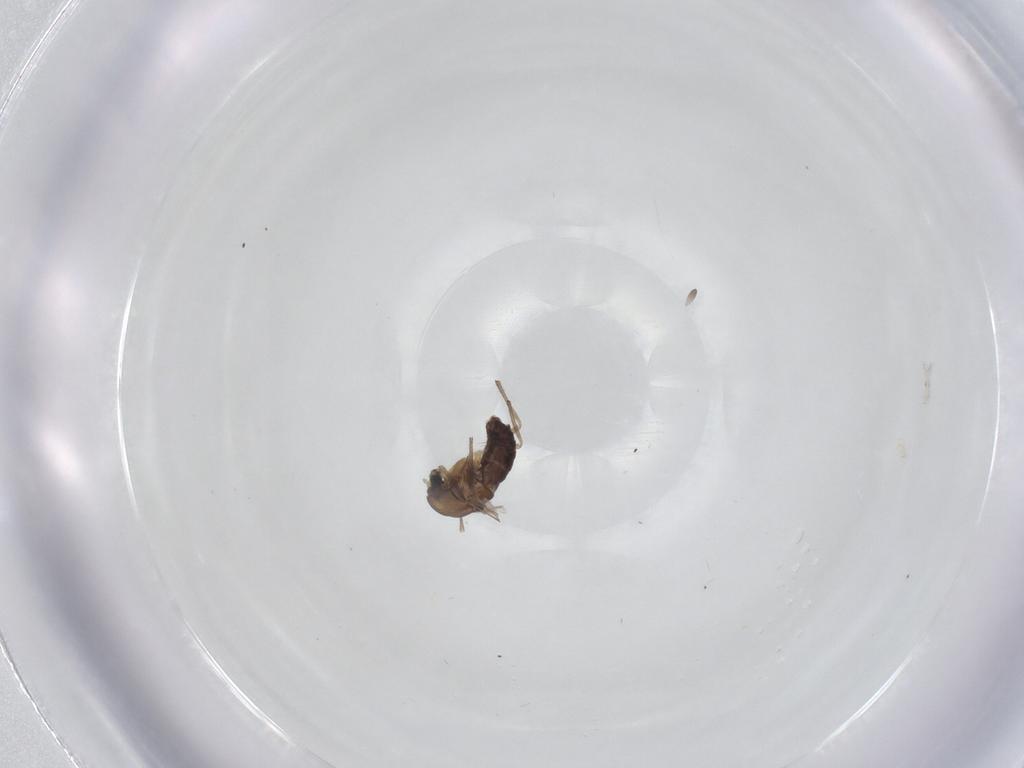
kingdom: Animalia
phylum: Arthropoda
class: Insecta
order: Diptera
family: Chironomidae
